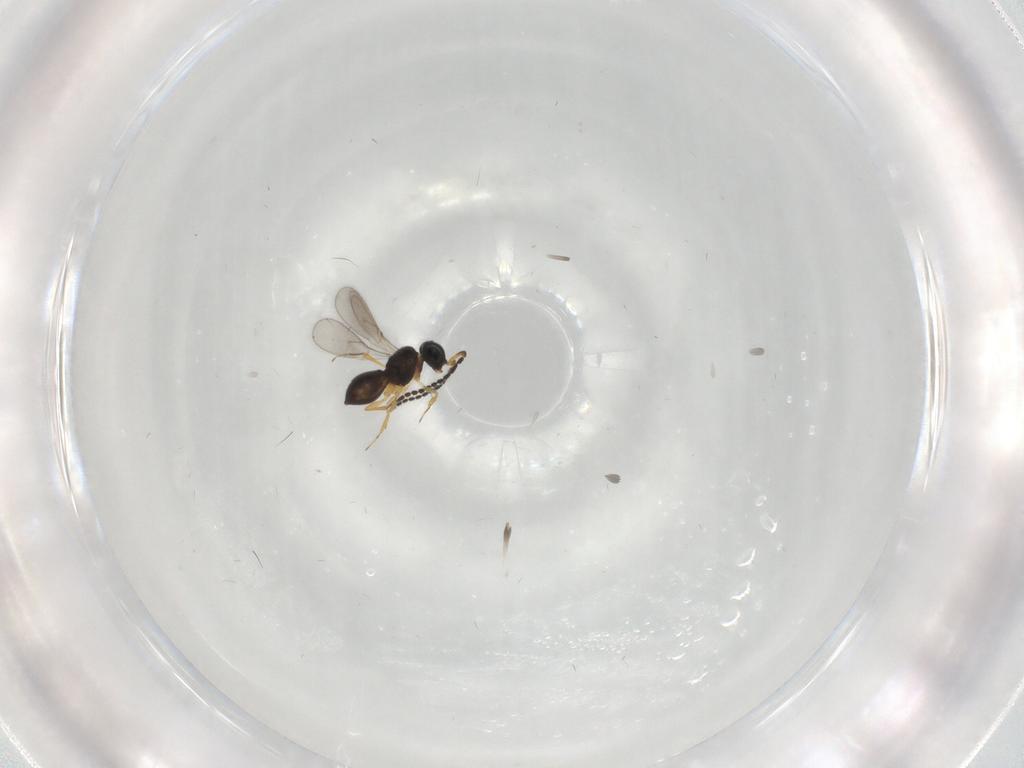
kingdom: Animalia
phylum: Arthropoda
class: Insecta
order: Hymenoptera
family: Scelionidae
